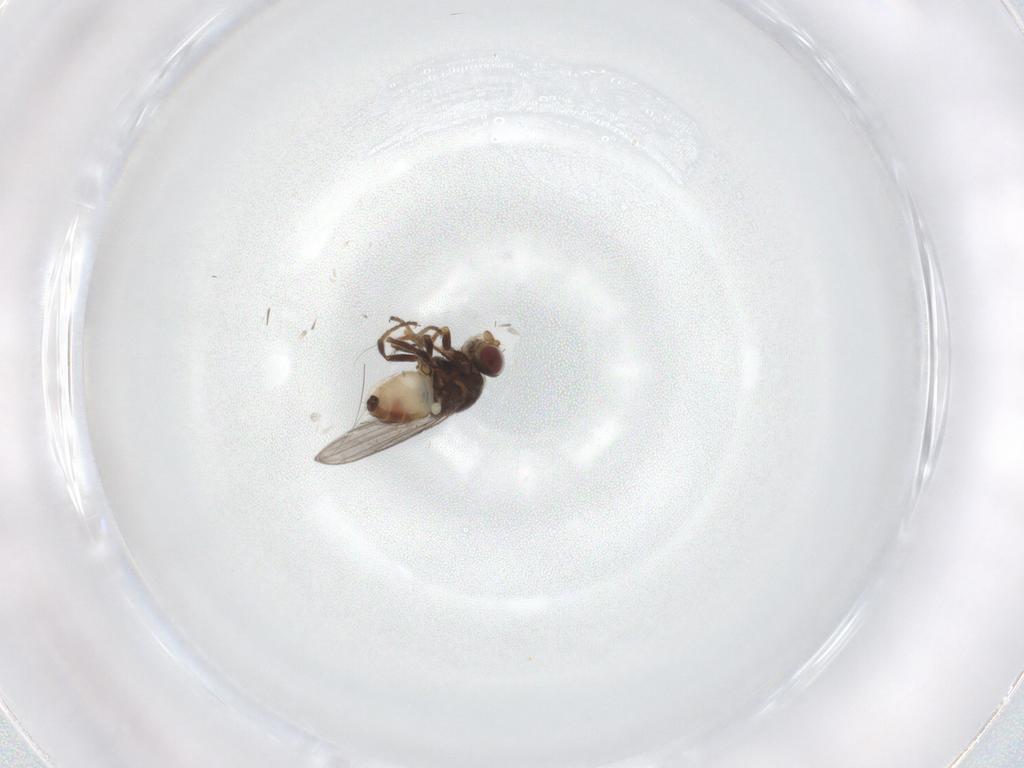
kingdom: Animalia
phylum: Arthropoda
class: Insecta
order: Diptera
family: Chloropidae
